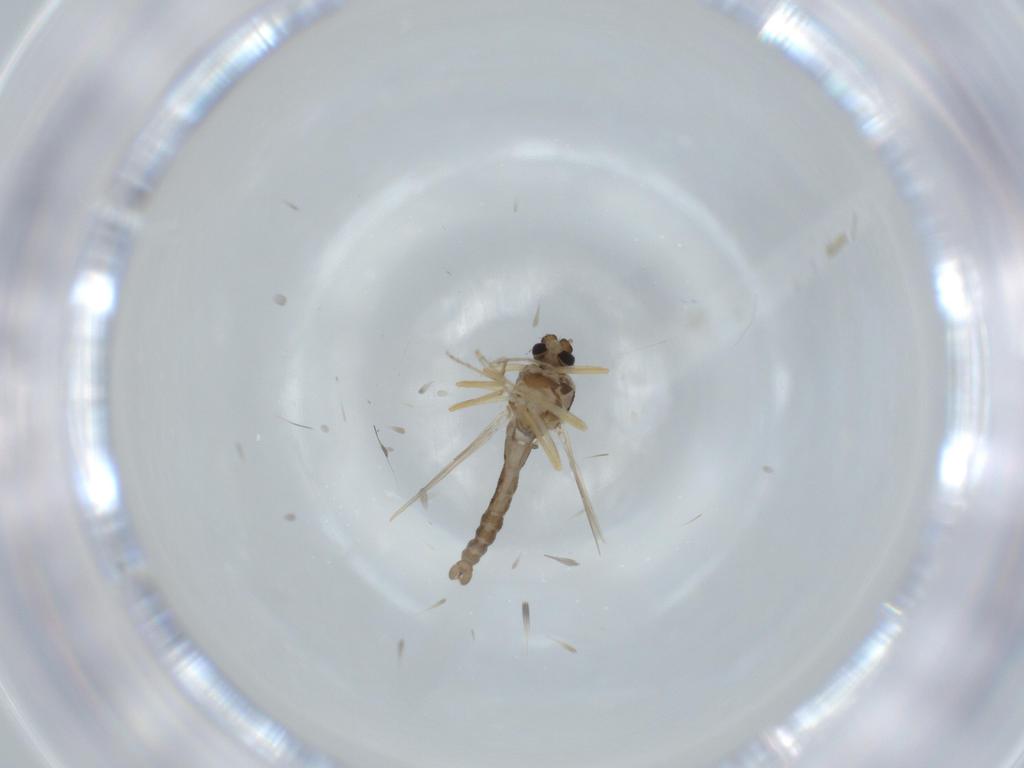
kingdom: Animalia
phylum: Arthropoda
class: Insecta
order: Diptera
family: Ceratopogonidae
